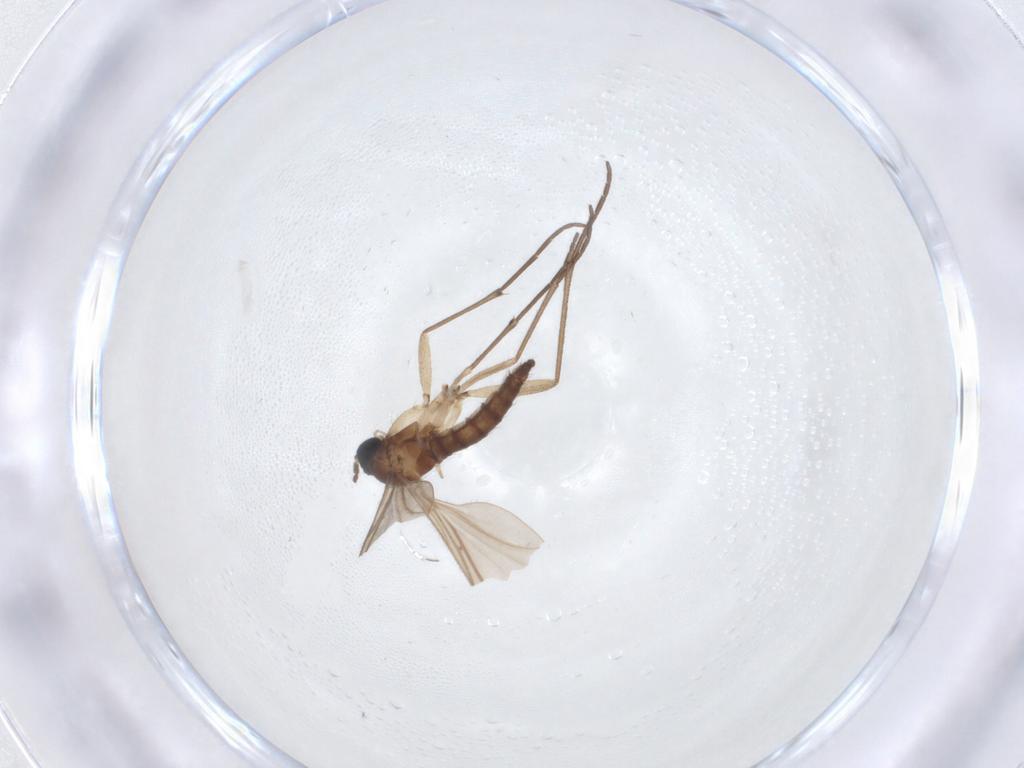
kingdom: Animalia
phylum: Arthropoda
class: Insecta
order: Diptera
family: Sciaridae
